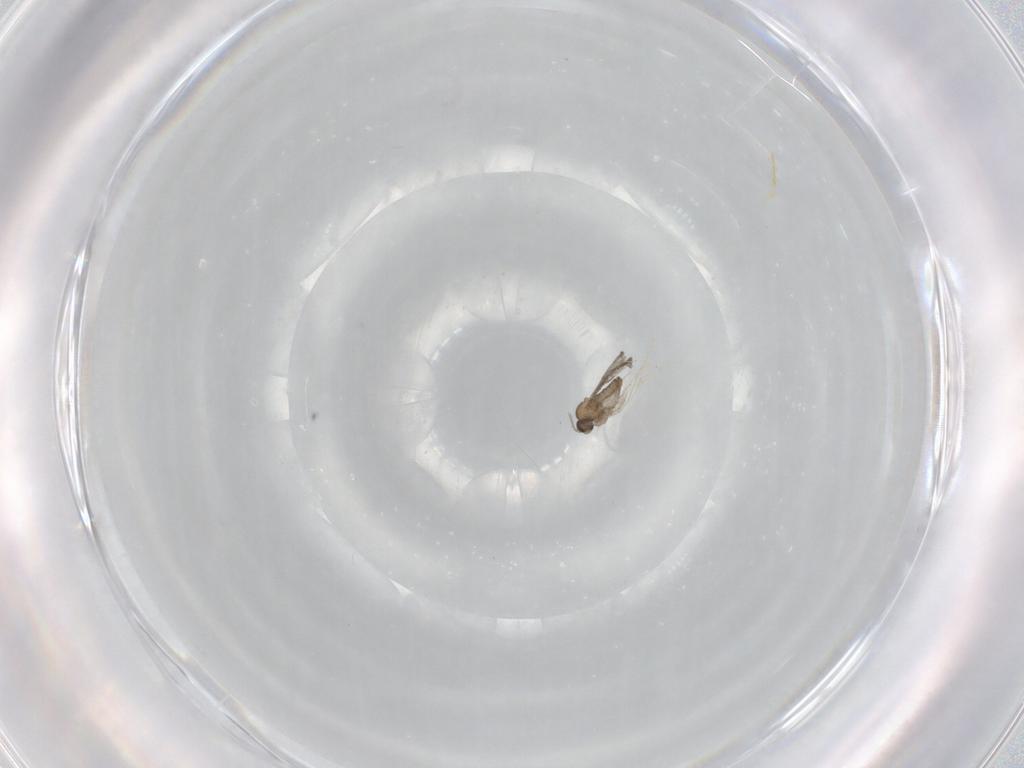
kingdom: Animalia
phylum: Arthropoda
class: Insecta
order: Diptera
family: Cecidomyiidae
